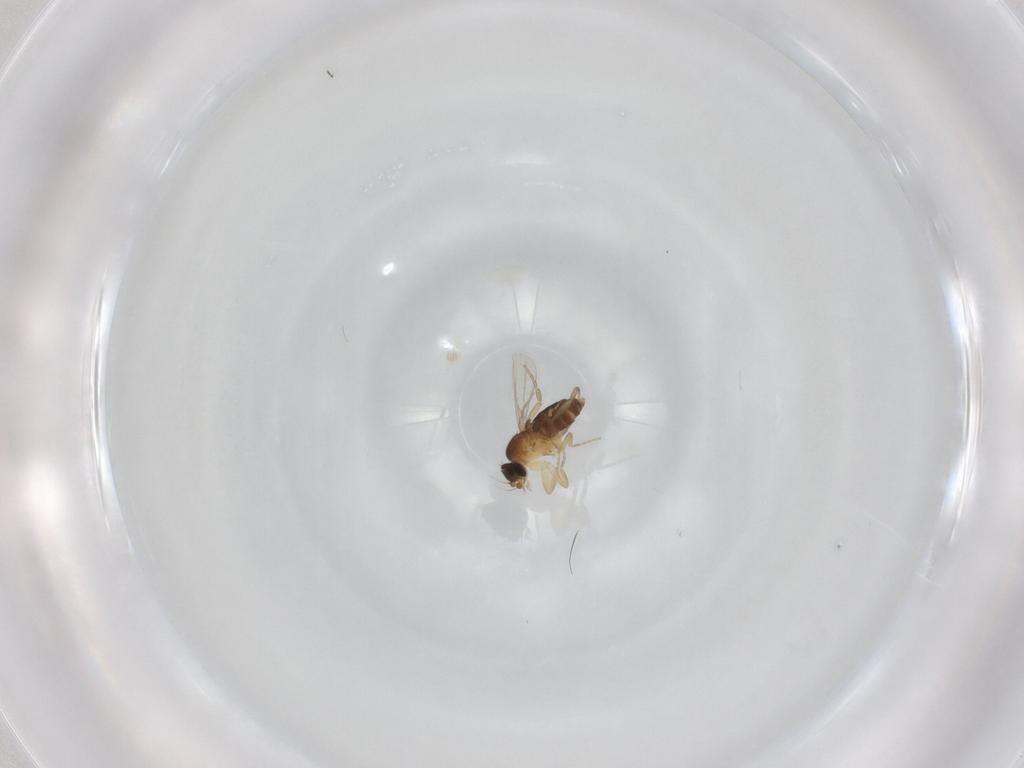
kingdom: Animalia
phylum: Arthropoda
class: Insecta
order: Diptera
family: Phoridae
